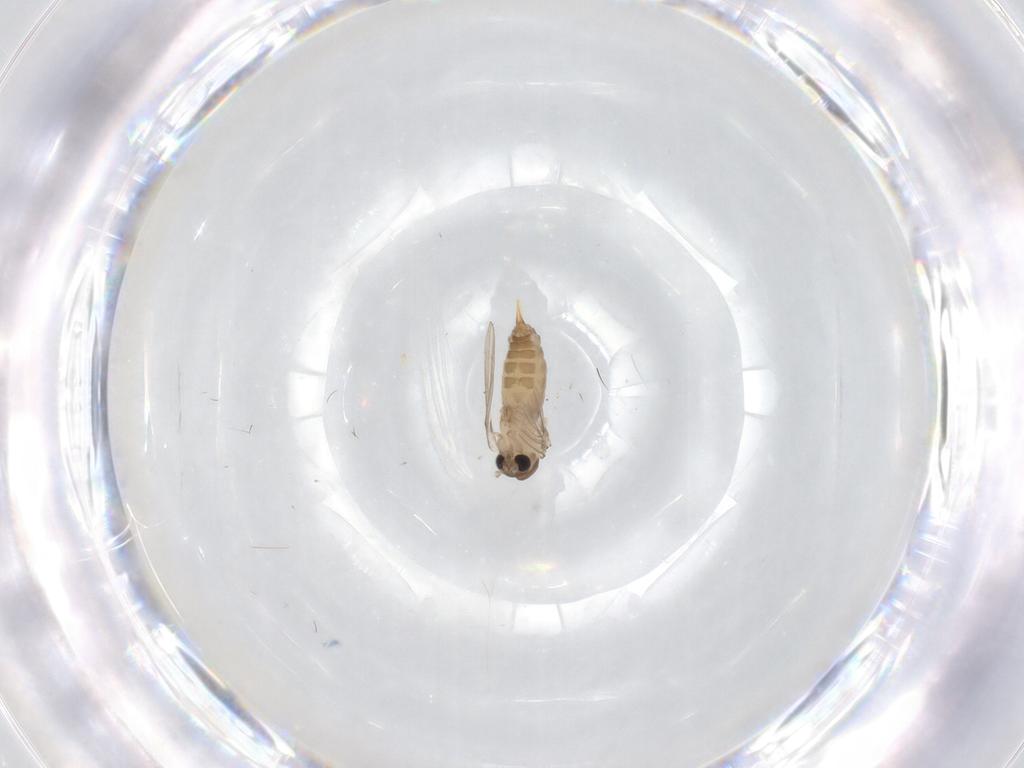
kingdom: Animalia
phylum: Arthropoda
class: Insecta
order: Diptera
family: Psychodidae
